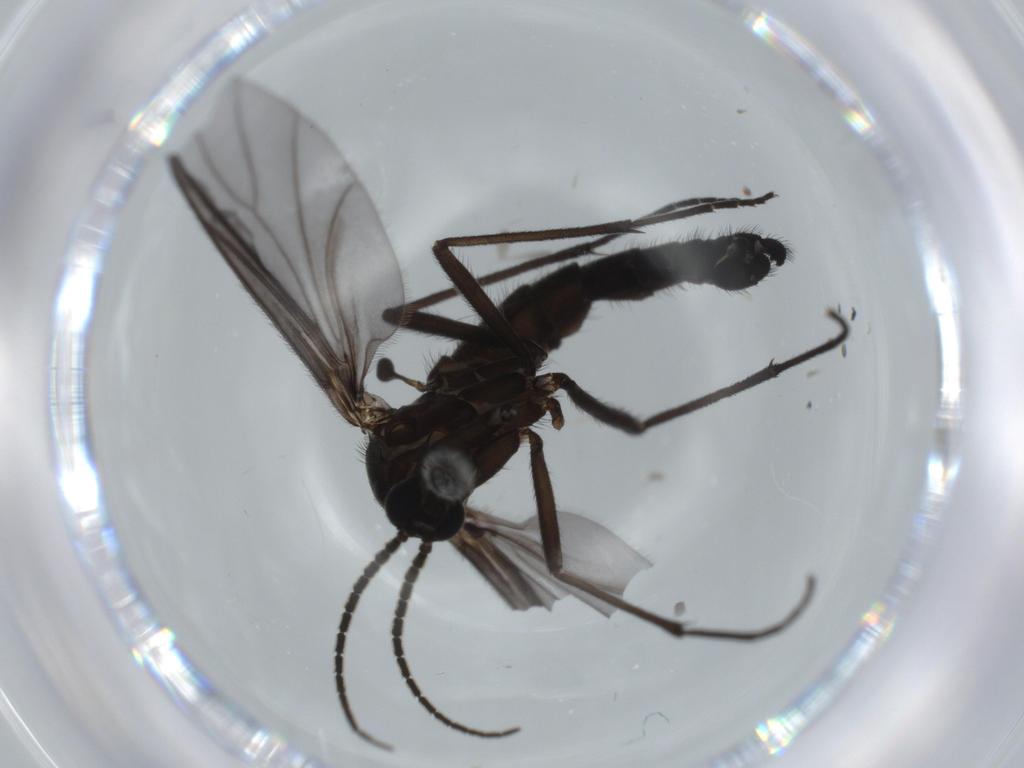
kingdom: Animalia
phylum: Arthropoda
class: Insecta
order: Diptera
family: Dolichopodidae
